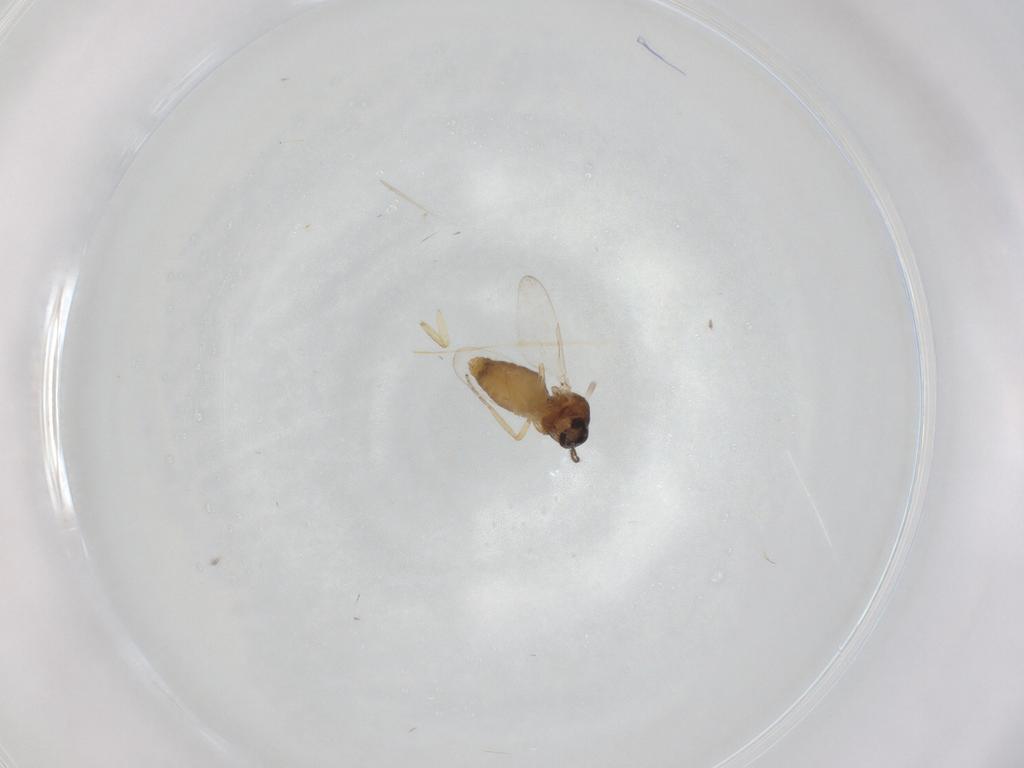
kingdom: Animalia
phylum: Arthropoda
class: Insecta
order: Diptera
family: Ceratopogonidae
